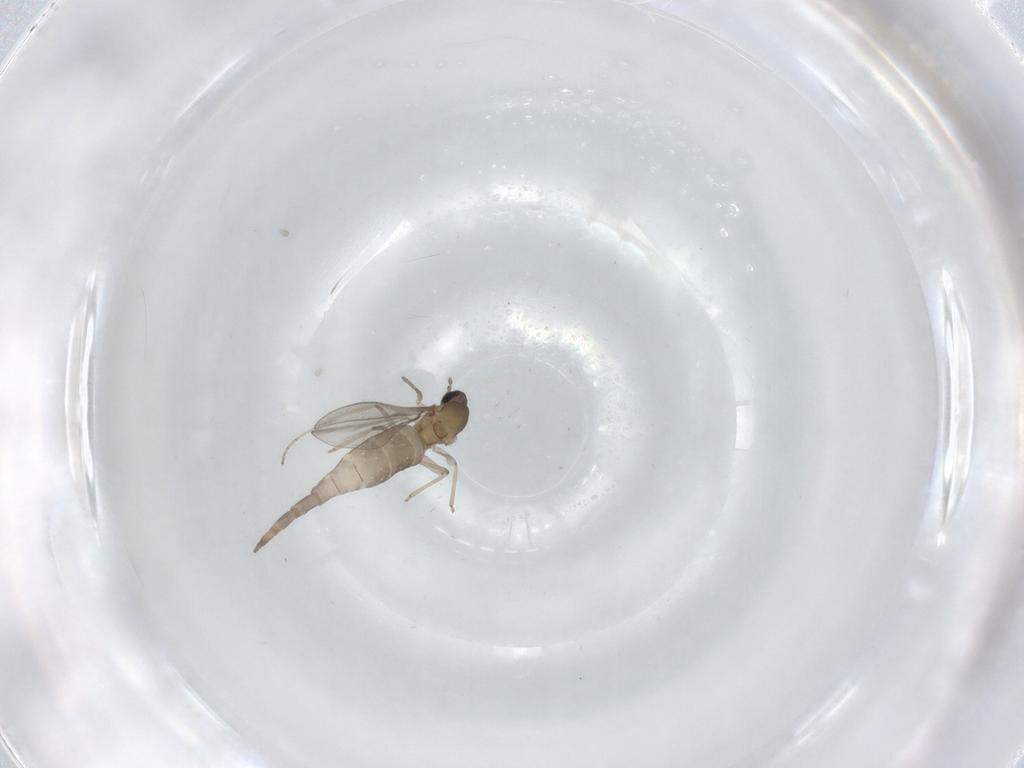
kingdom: Animalia
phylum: Arthropoda
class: Insecta
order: Diptera
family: Cecidomyiidae
